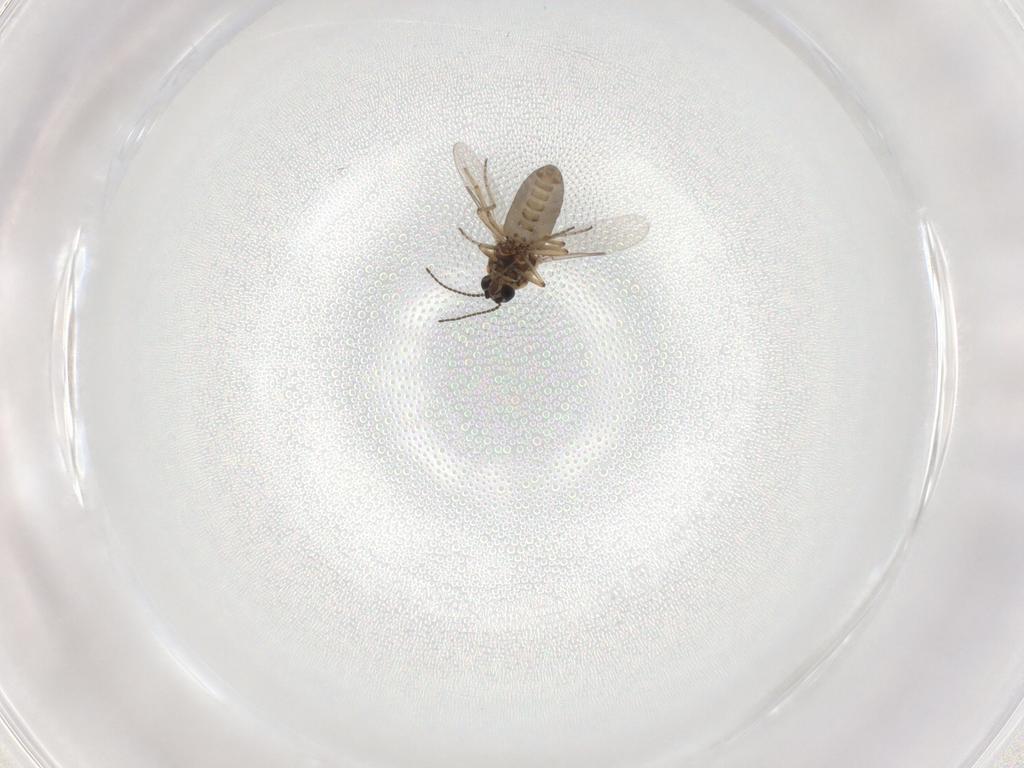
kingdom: Animalia
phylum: Arthropoda
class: Insecta
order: Diptera
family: Ceratopogonidae
